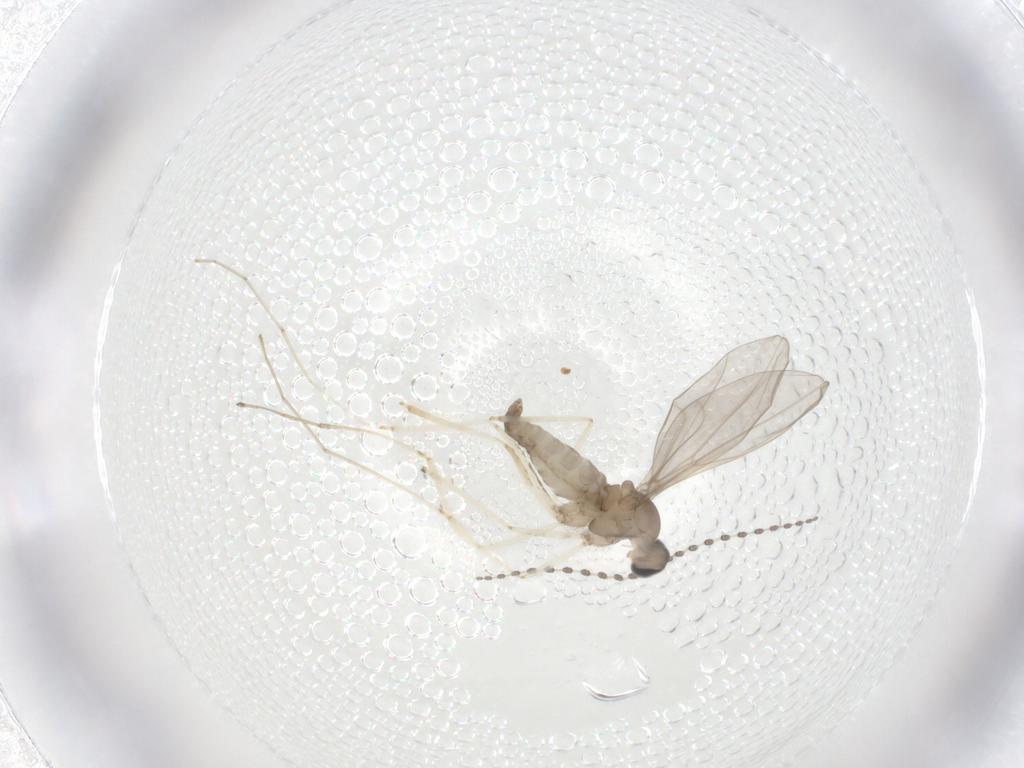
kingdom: Animalia
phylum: Arthropoda
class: Insecta
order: Diptera
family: Cecidomyiidae
